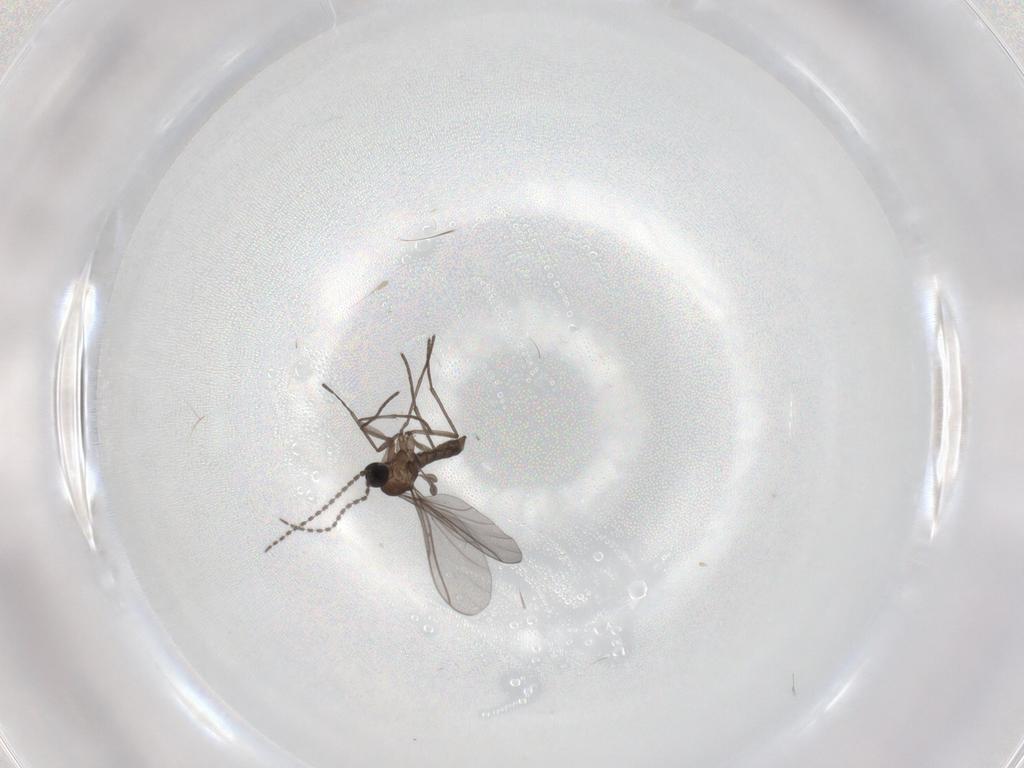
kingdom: Animalia
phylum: Arthropoda
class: Insecta
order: Diptera
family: Sciaridae
